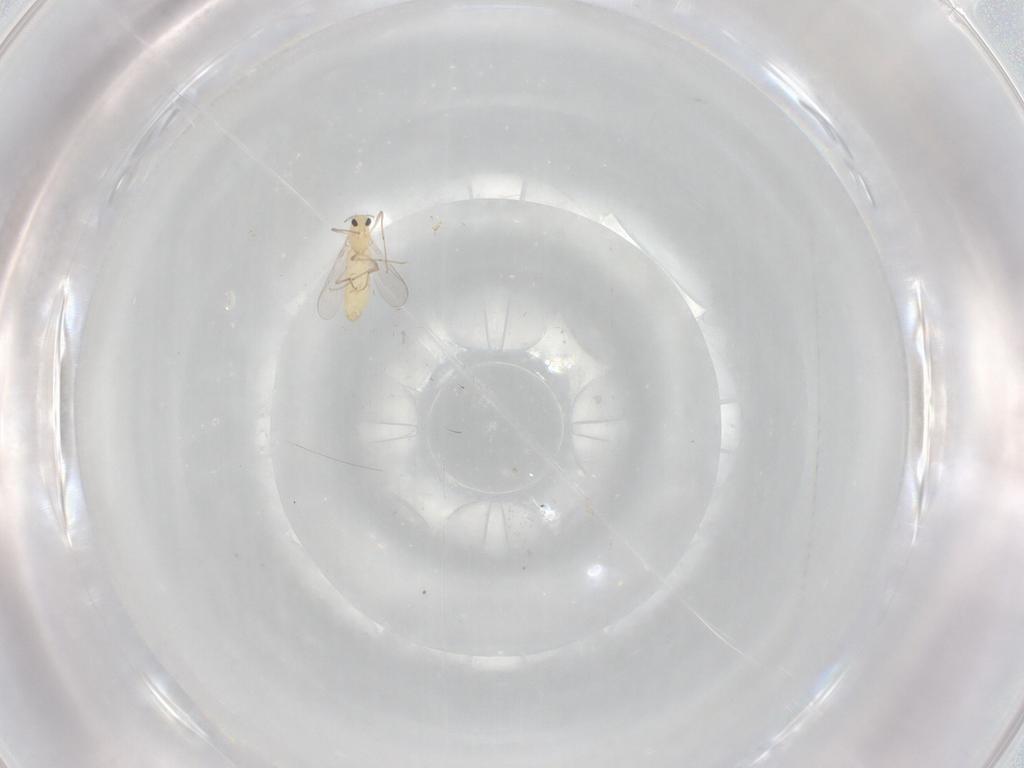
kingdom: Animalia
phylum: Arthropoda
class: Insecta
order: Diptera
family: Chironomidae
